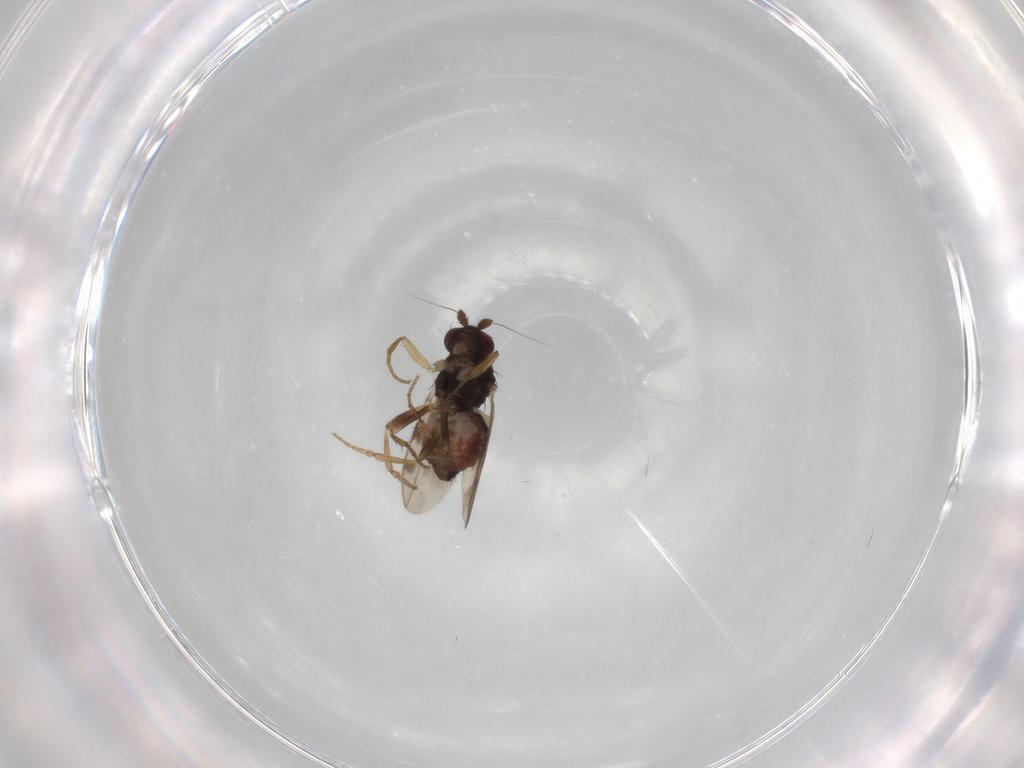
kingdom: Animalia
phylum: Arthropoda
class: Insecta
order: Diptera
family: Sphaeroceridae
